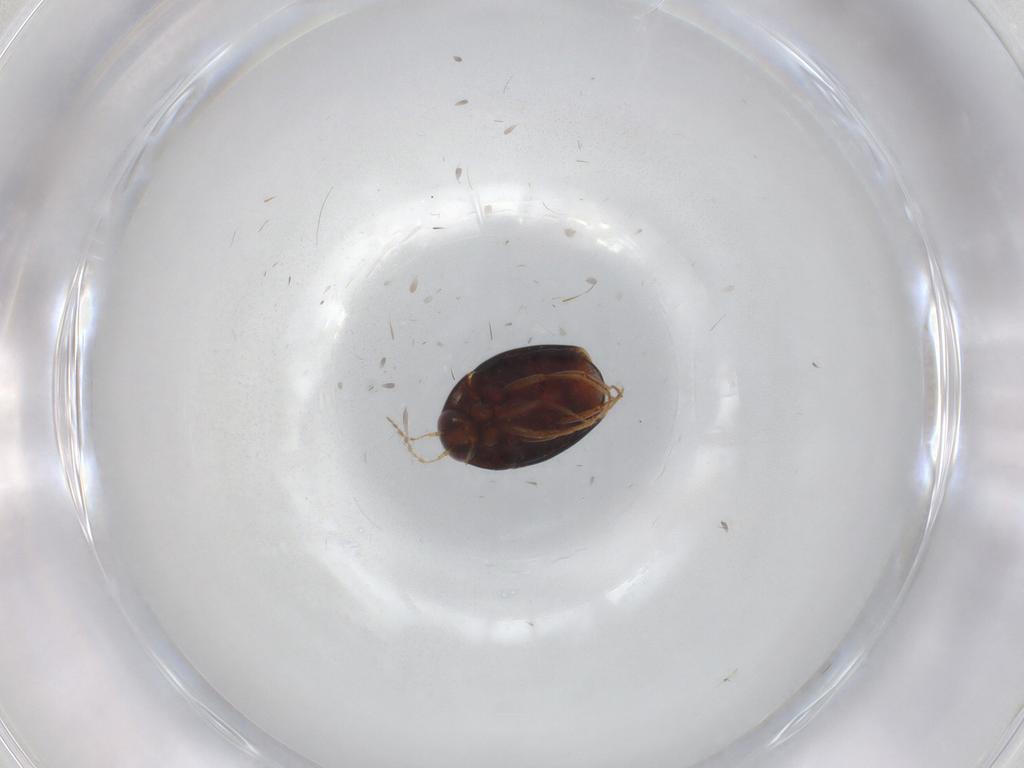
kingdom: Animalia
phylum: Arthropoda
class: Insecta
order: Coleoptera
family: Staphylinidae
